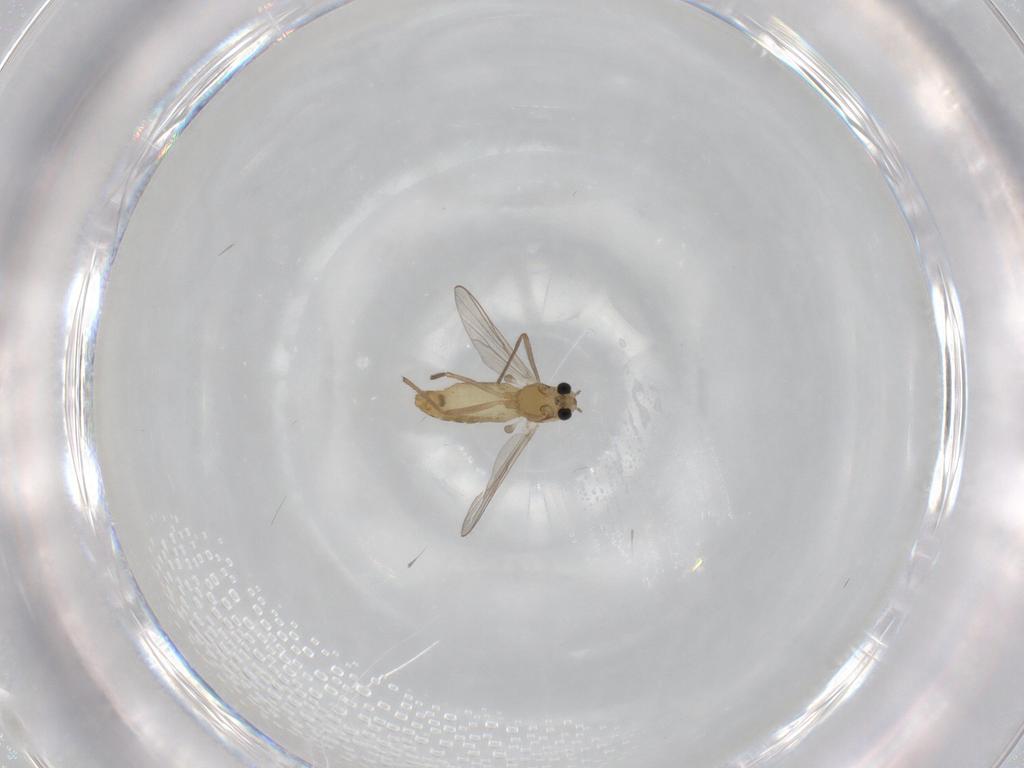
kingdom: Animalia
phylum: Arthropoda
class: Insecta
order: Diptera
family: Chironomidae
